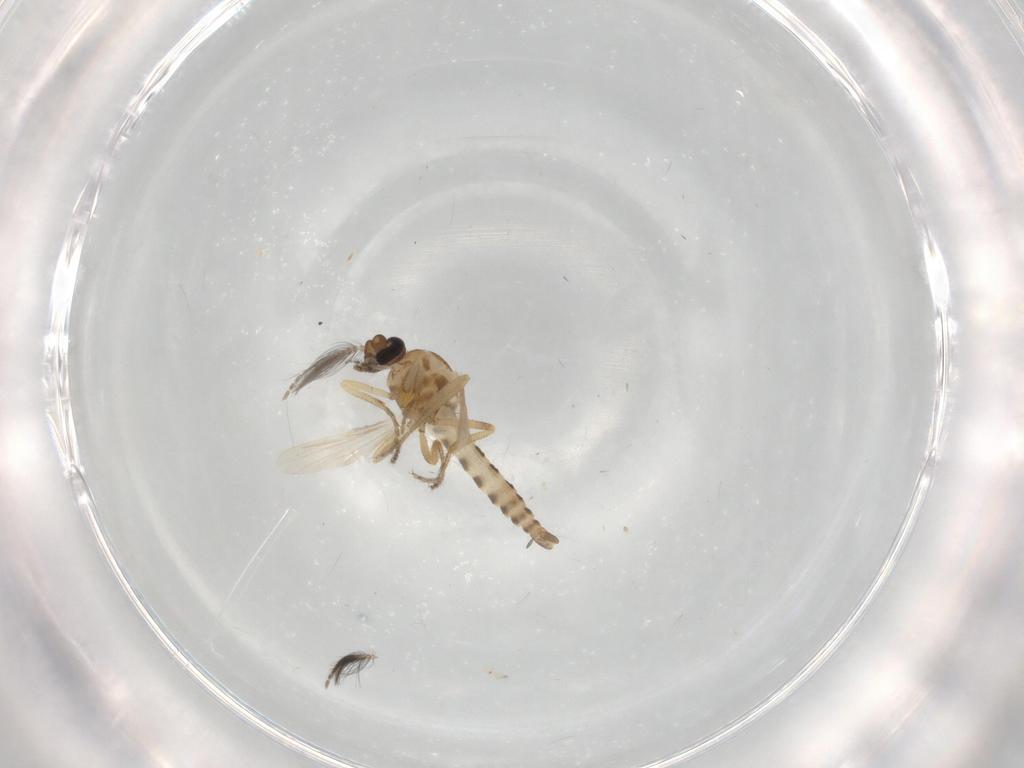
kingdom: Animalia
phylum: Arthropoda
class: Insecta
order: Diptera
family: Ceratopogonidae
